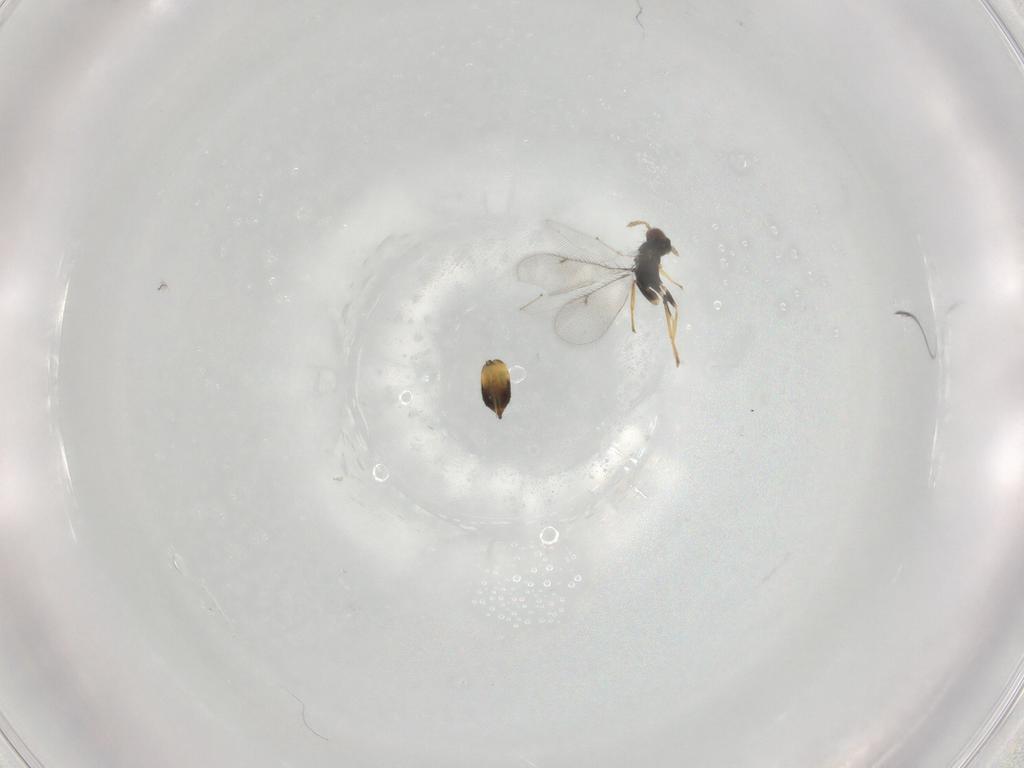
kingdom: Animalia
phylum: Arthropoda
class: Insecta
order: Hymenoptera
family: Eulophidae
